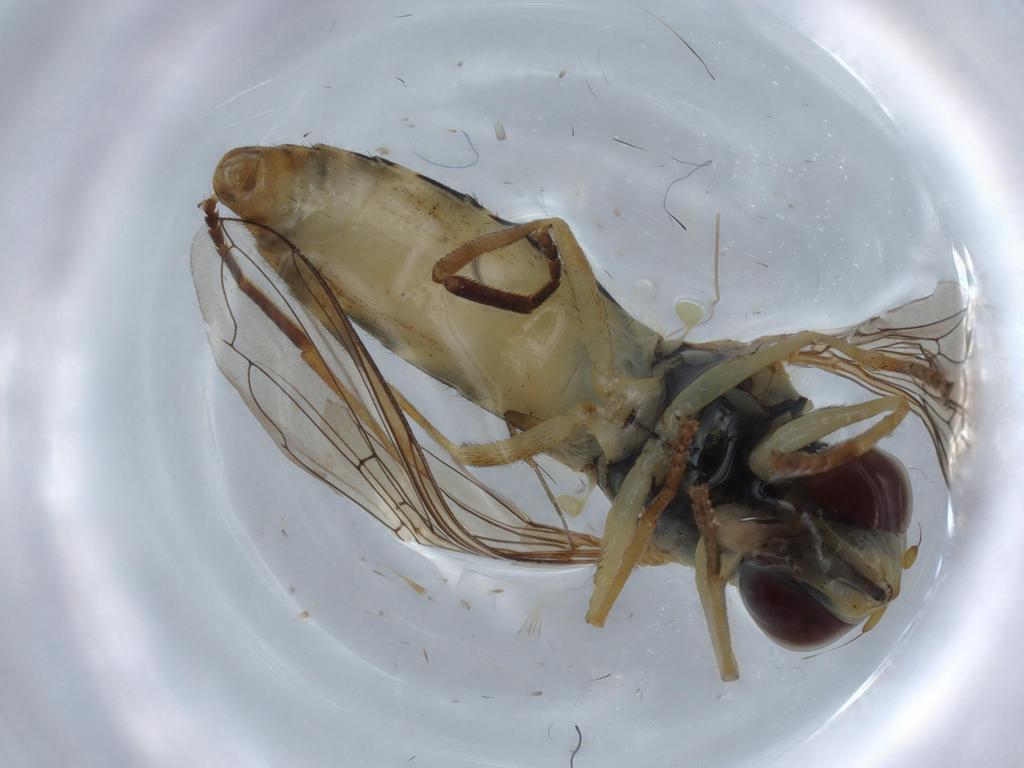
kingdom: Animalia
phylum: Arthropoda
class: Insecta
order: Diptera
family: Syrphidae
